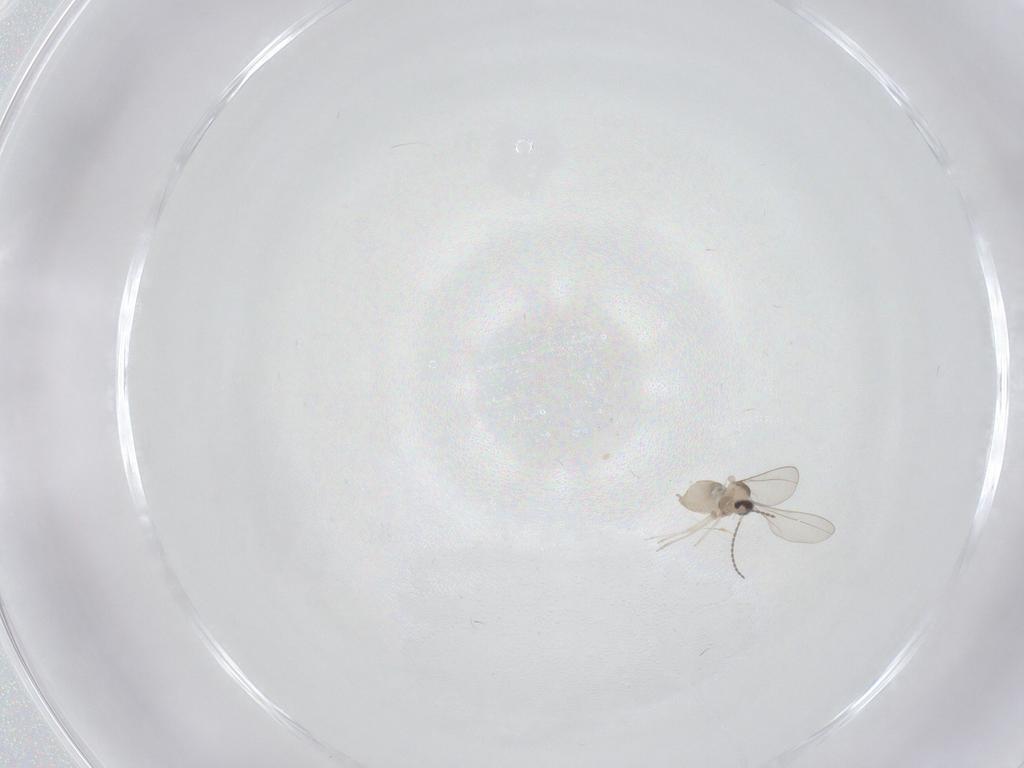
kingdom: Animalia
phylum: Arthropoda
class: Insecta
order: Diptera
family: Cecidomyiidae
